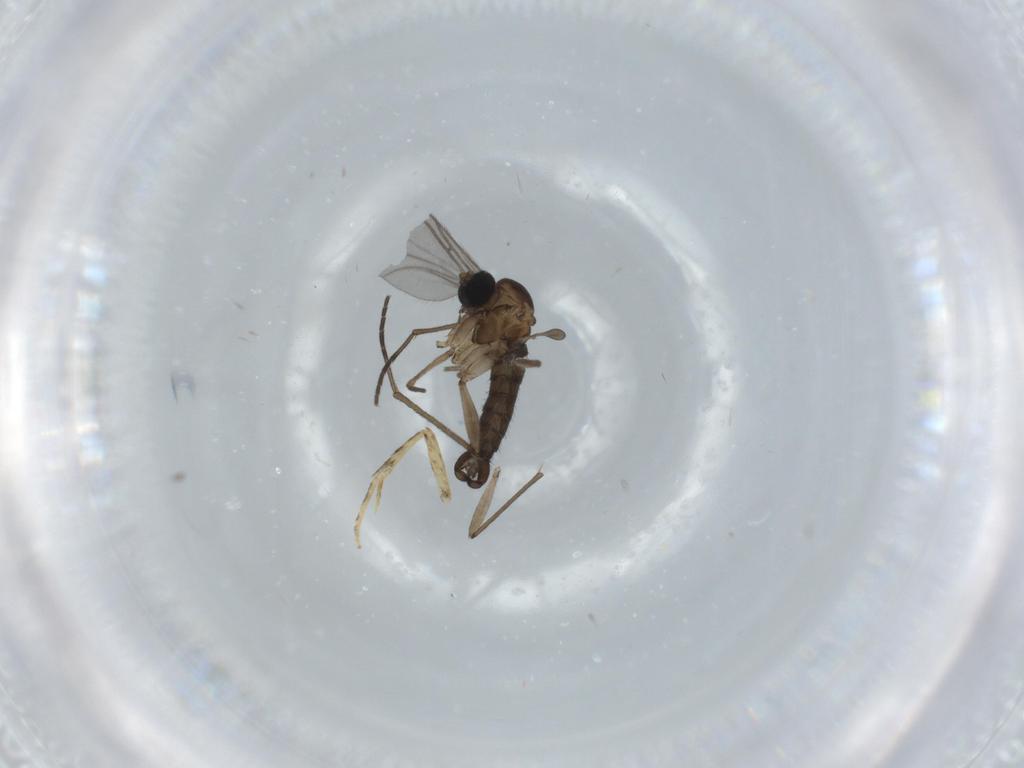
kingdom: Animalia
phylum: Arthropoda
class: Insecta
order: Diptera
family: Sciaridae
